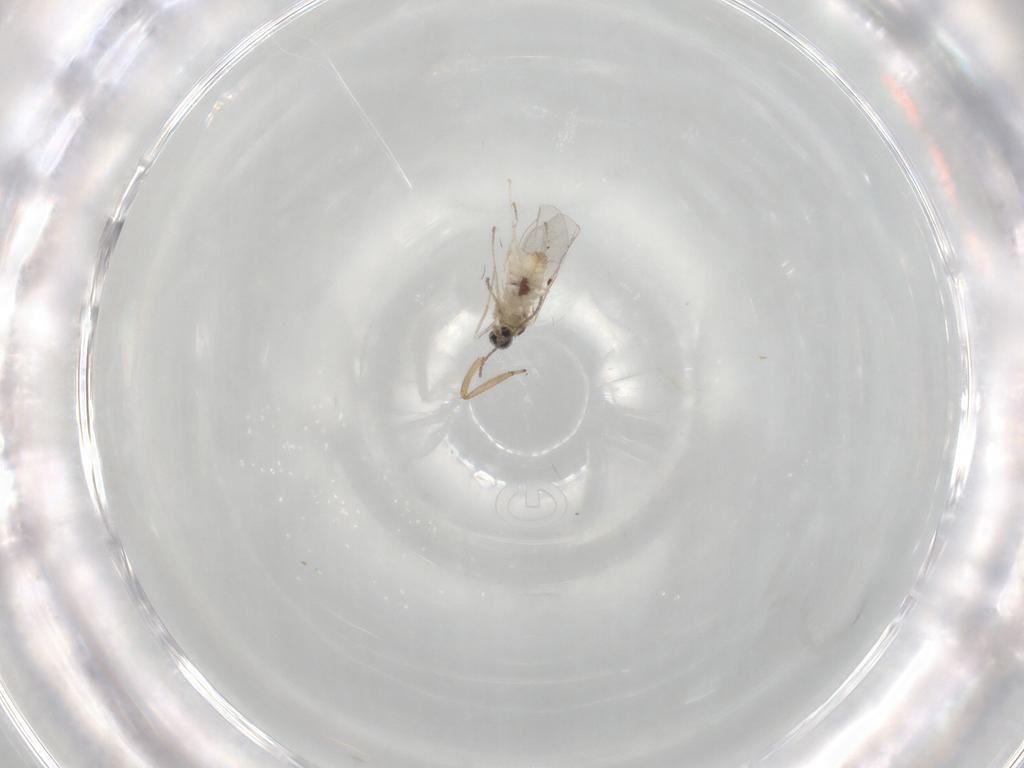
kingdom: Animalia
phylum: Arthropoda
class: Insecta
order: Diptera
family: Cecidomyiidae
